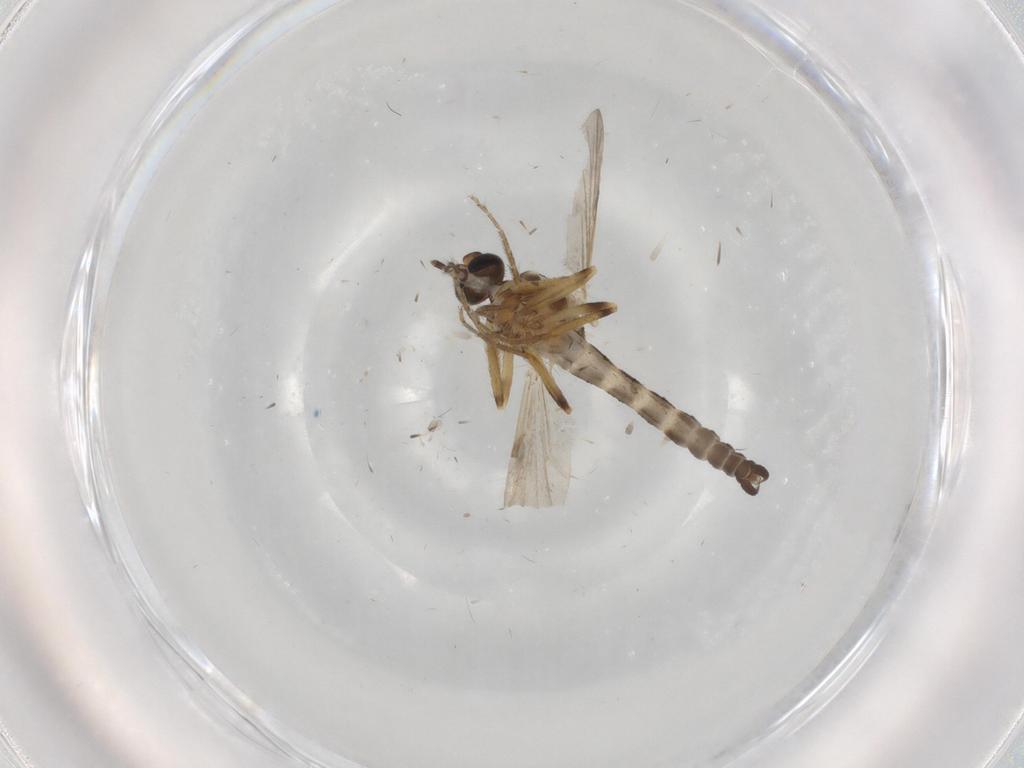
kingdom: Animalia
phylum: Arthropoda
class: Insecta
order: Diptera
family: Ceratopogonidae
